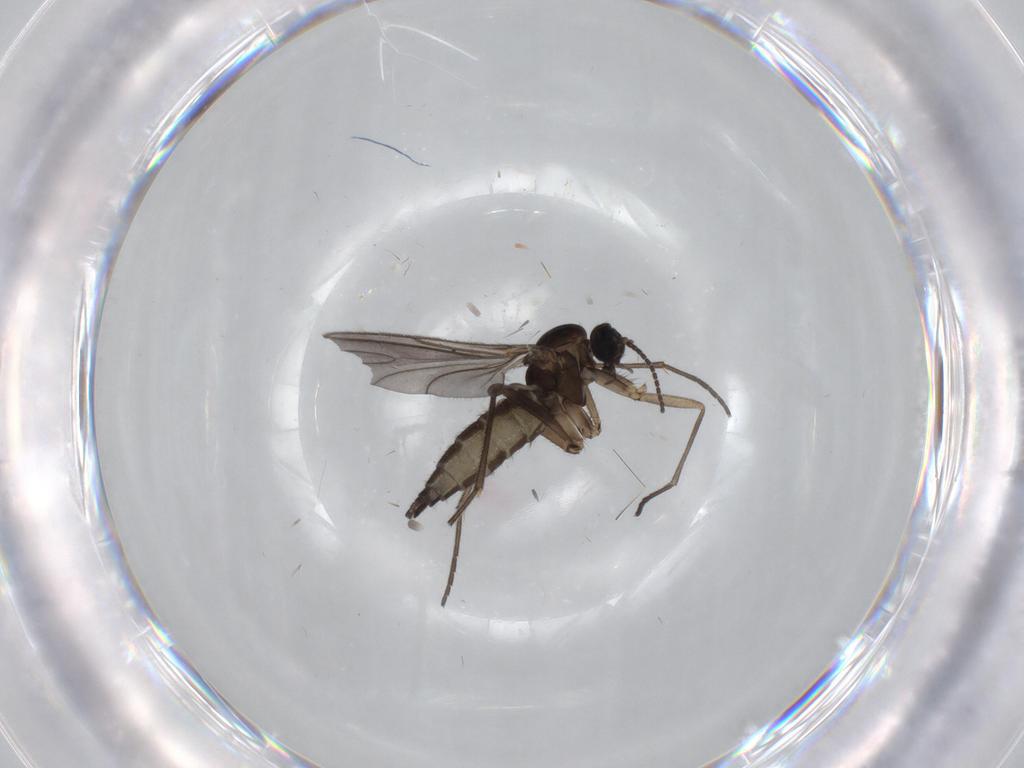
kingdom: Animalia
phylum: Arthropoda
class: Insecta
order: Diptera
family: Sciaridae
